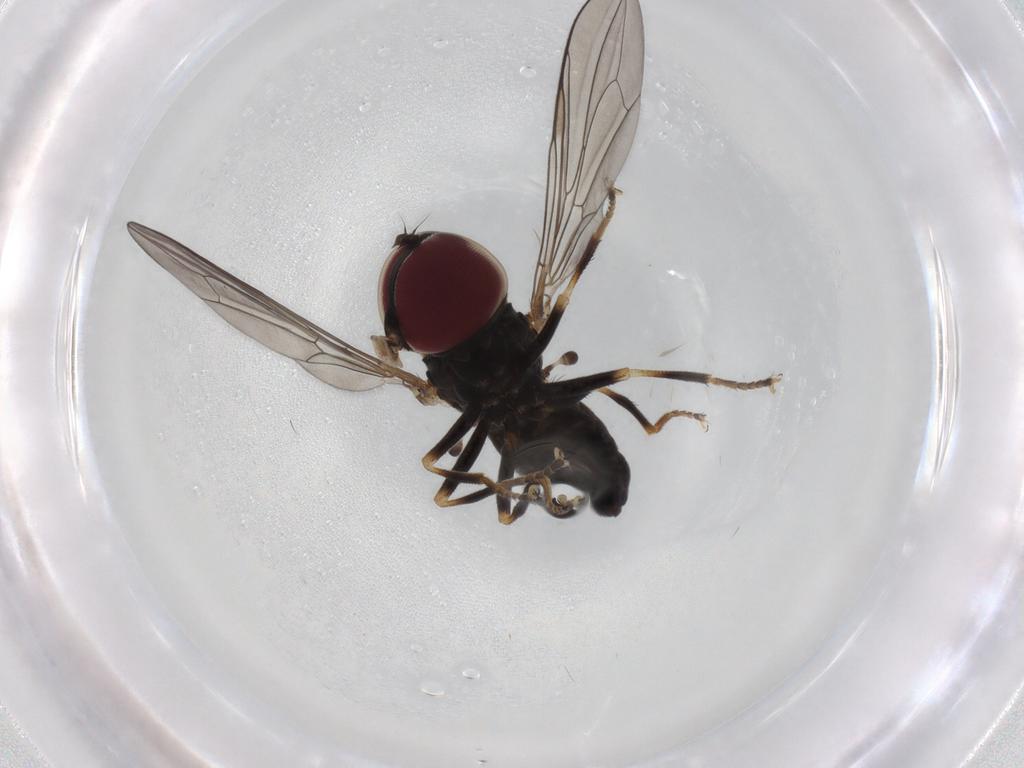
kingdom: Animalia
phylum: Arthropoda
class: Insecta
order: Diptera
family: Pipunculidae
